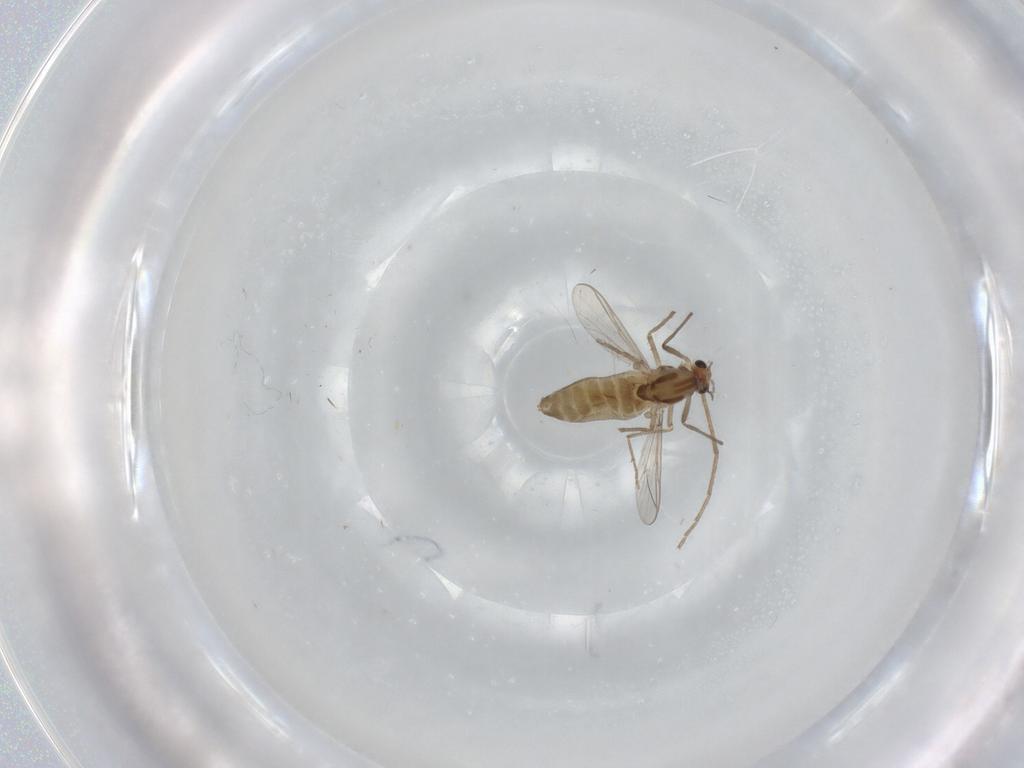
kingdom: Animalia
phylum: Arthropoda
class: Insecta
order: Diptera
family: Chironomidae
